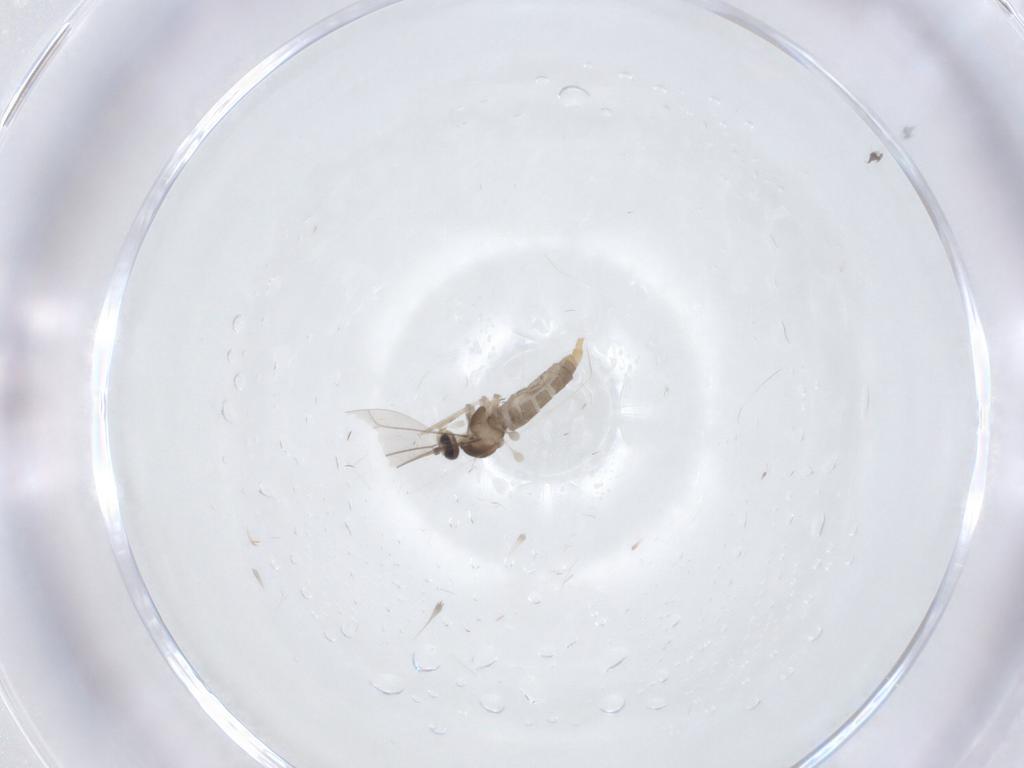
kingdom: Animalia
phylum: Arthropoda
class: Insecta
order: Diptera
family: Cecidomyiidae
